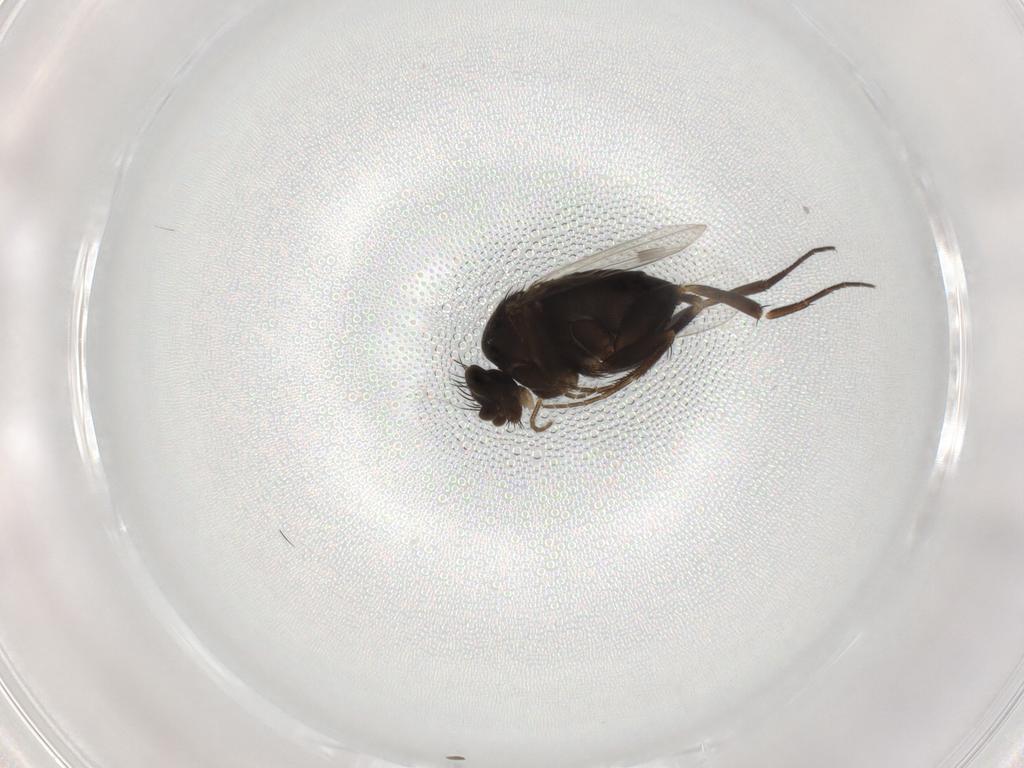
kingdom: Animalia
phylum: Arthropoda
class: Insecta
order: Diptera
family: Phoridae
